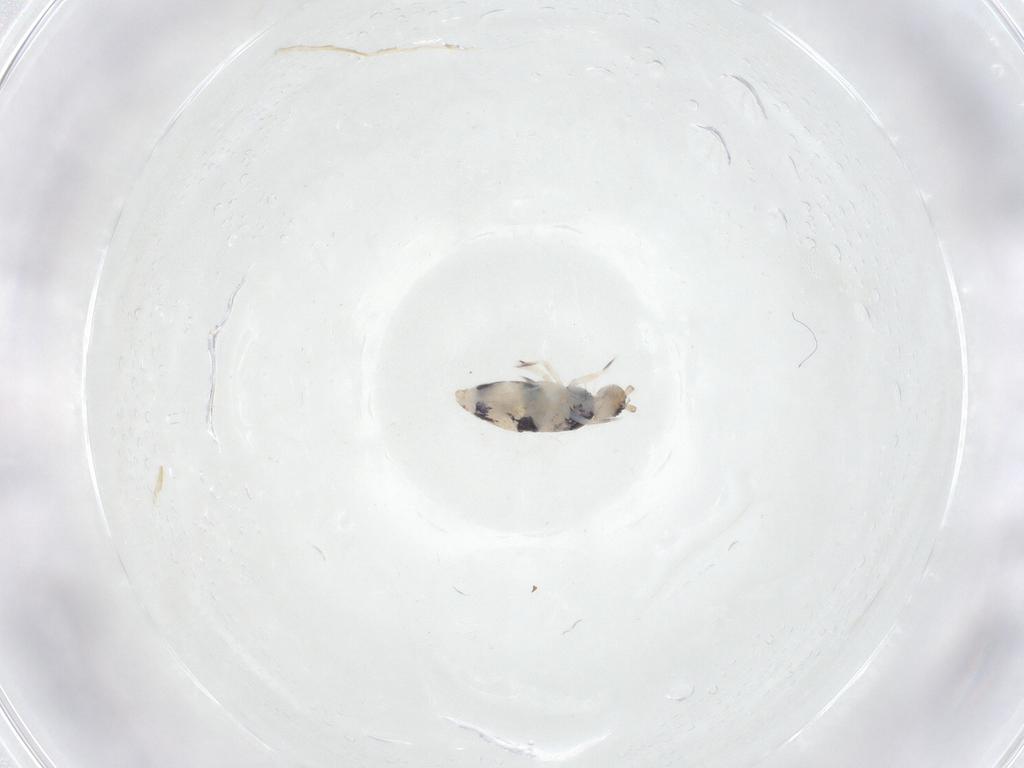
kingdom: Animalia
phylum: Arthropoda
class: Collembola
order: Entomobryomorpha
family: Entomobryidae
